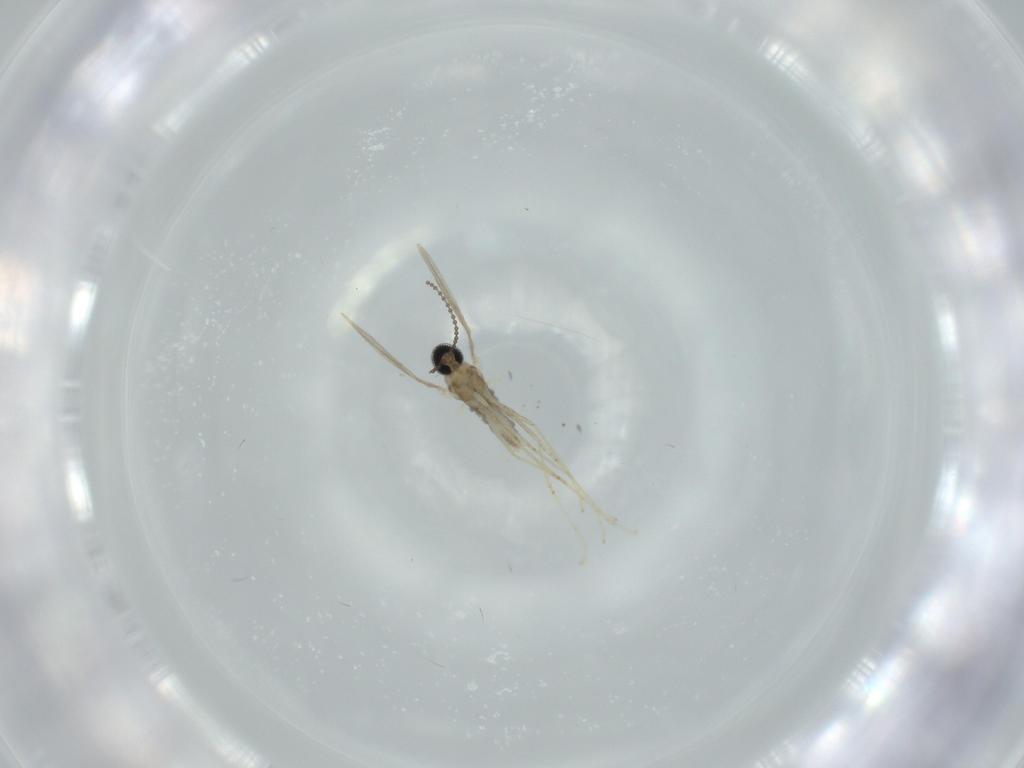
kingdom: Animalia
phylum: Arthropoda
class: Insecta
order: Diptera
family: Cecidomyiidae
